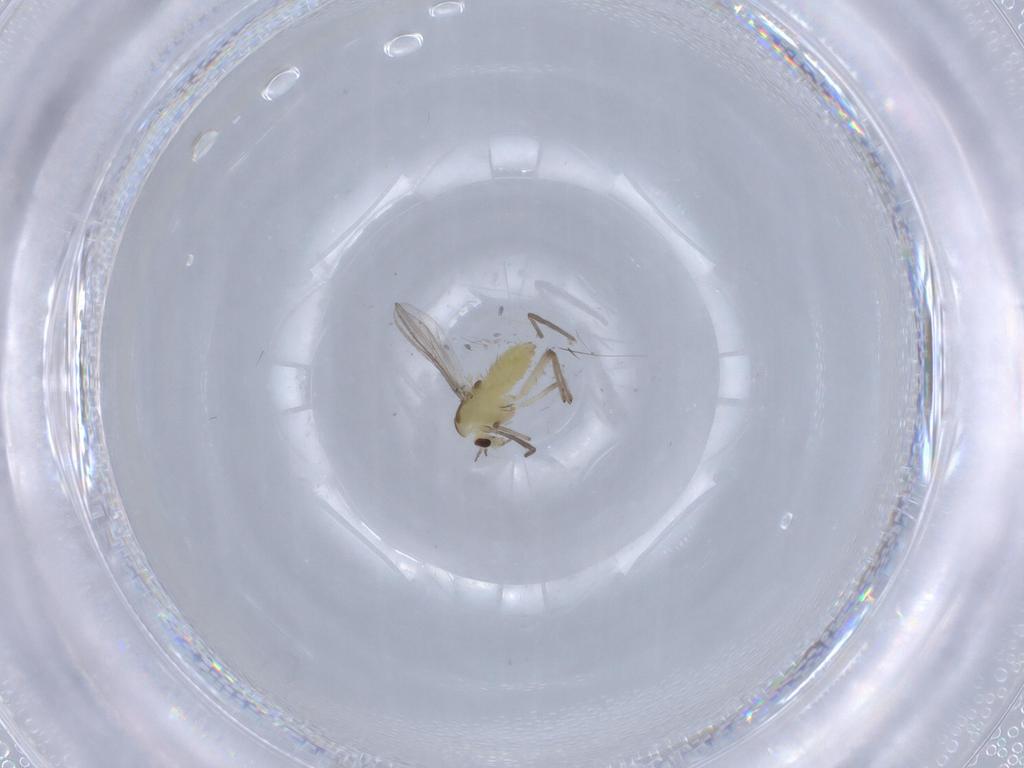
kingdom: Animalia
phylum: Arthropoda
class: Insecta
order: Diptera
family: Chironomidae
